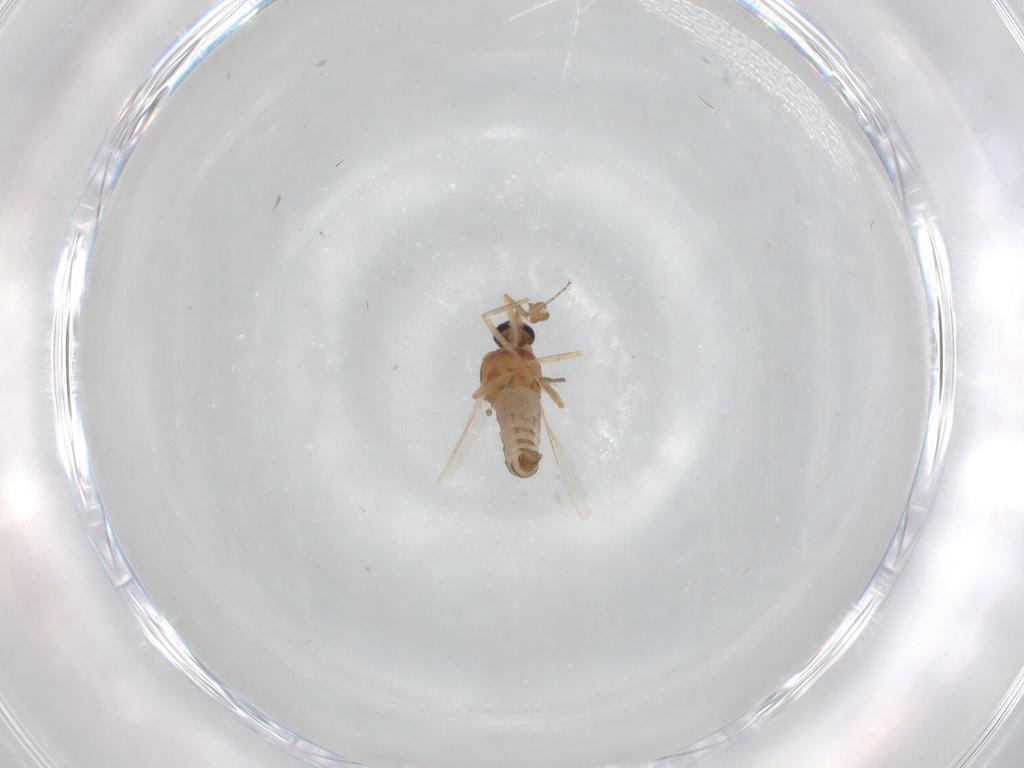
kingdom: Animalia
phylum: Arthropoda
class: Insecta
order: Diptera
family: Ceratopogonidae
